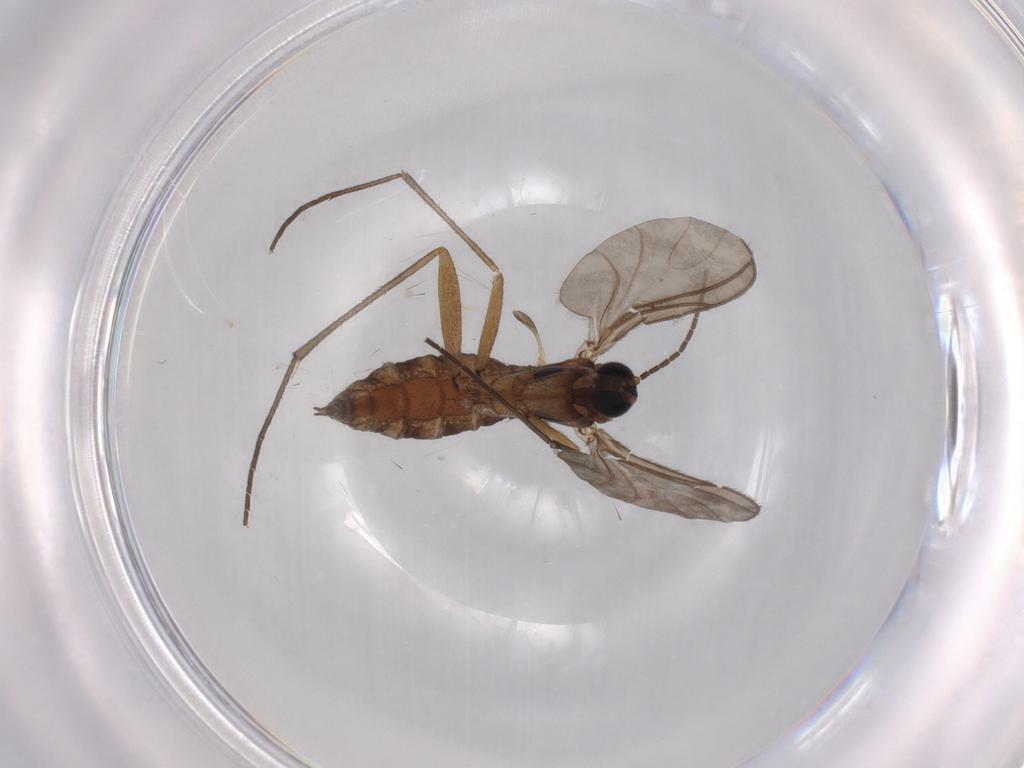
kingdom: Animalia
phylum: Arthropoda
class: Insecta
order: Diptera
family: Sciaridae
